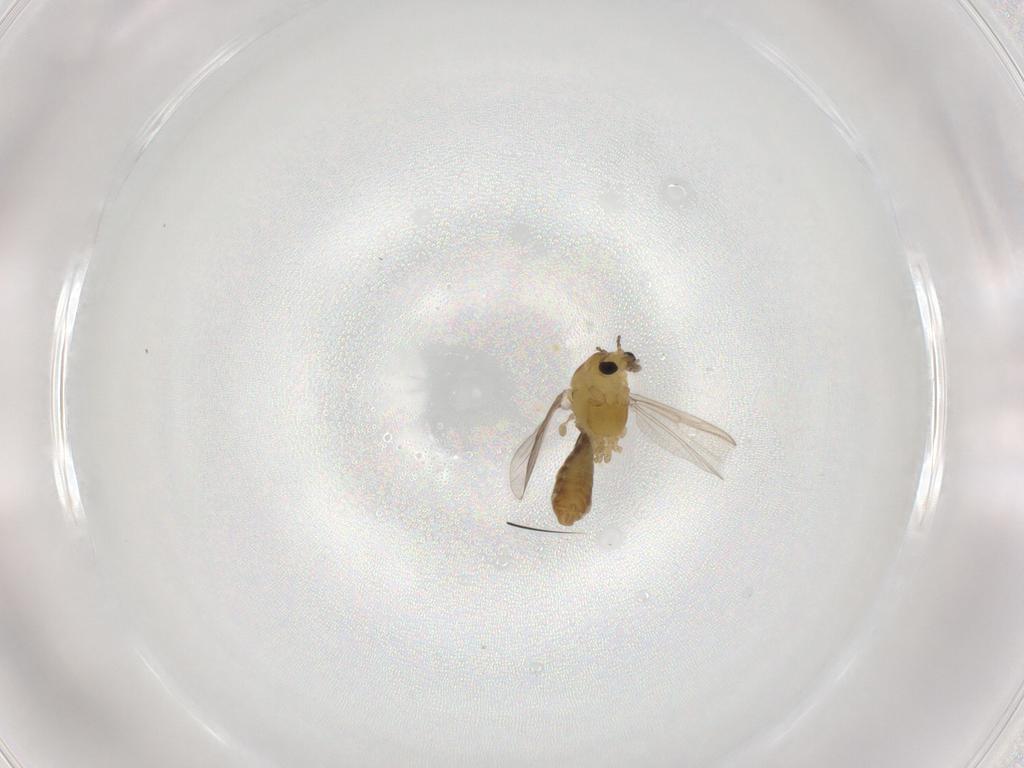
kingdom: Animalia
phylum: Arthropoda
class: Insecta
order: Diptera
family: Chironomidae
